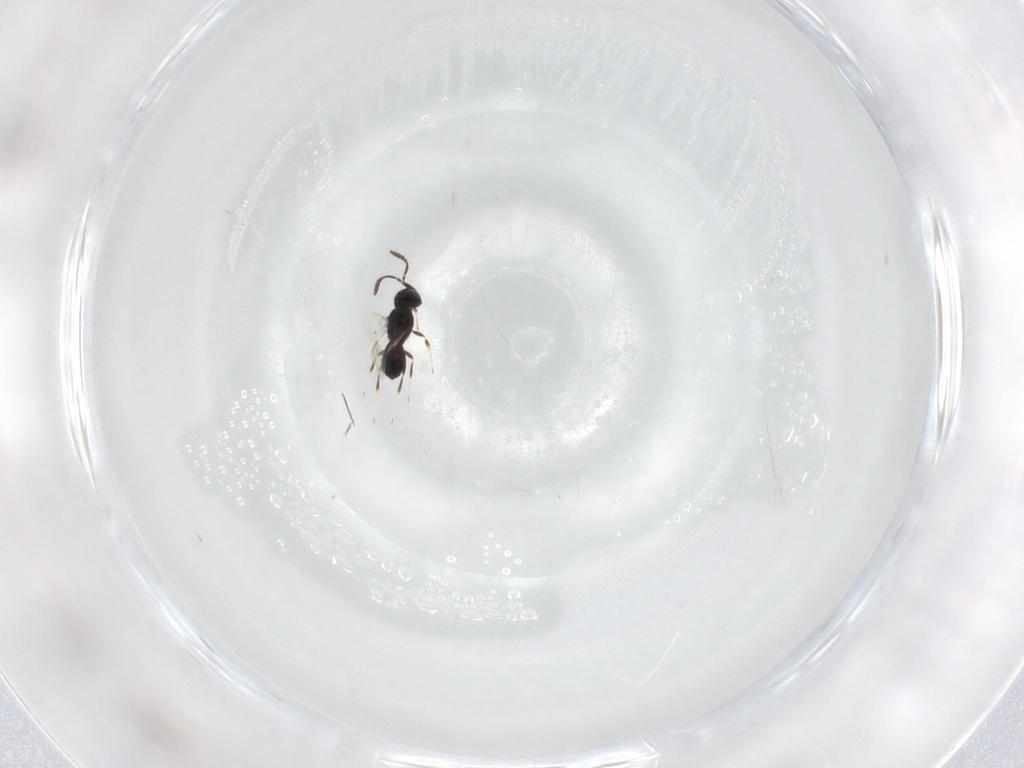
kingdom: Animalia
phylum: Arthropoda
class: Insecta
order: Hymenoptera
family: Scelionidae
